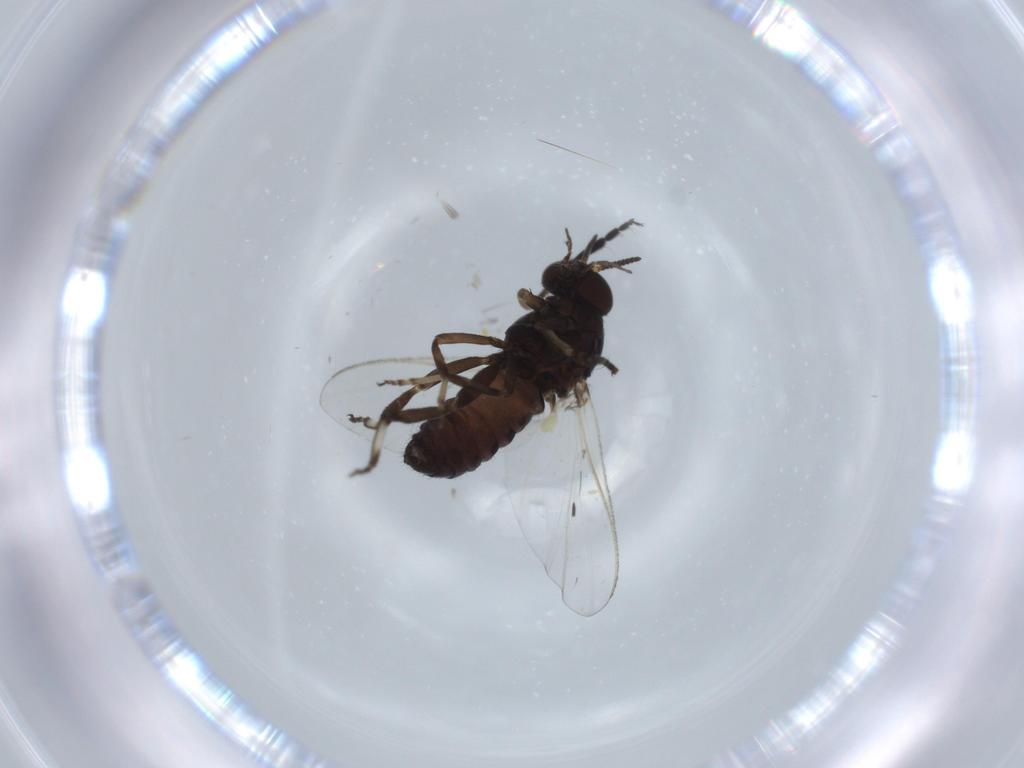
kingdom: Animalia
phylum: Arthropoda
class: Insecta
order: Diptera
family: Simuliidae
